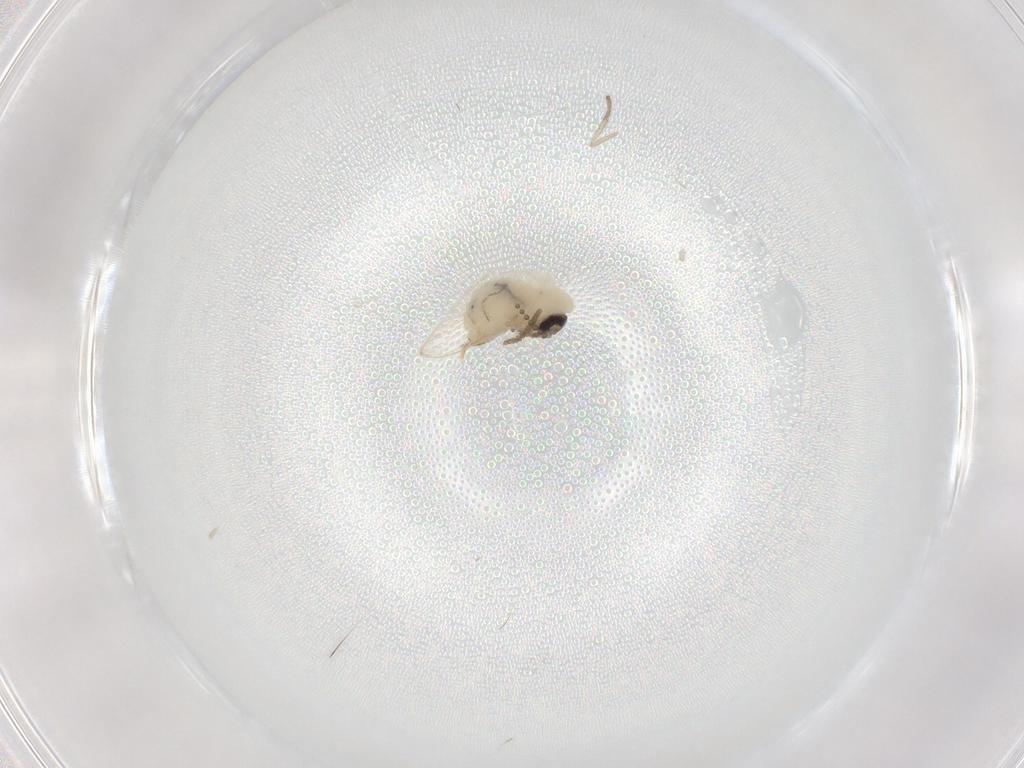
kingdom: Animalia
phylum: Arthropoda
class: Insecta
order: Diptera
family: Psychodidae
